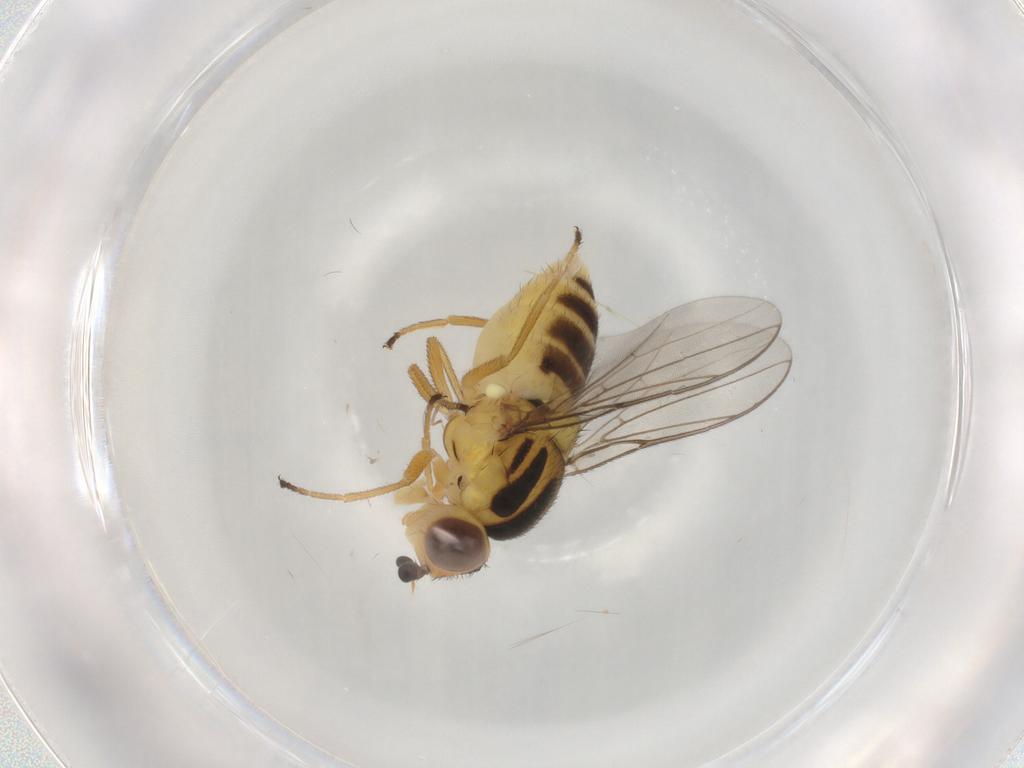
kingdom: Animalia
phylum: Arthropoda
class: Insecta
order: Diptera
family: Chloropidae
